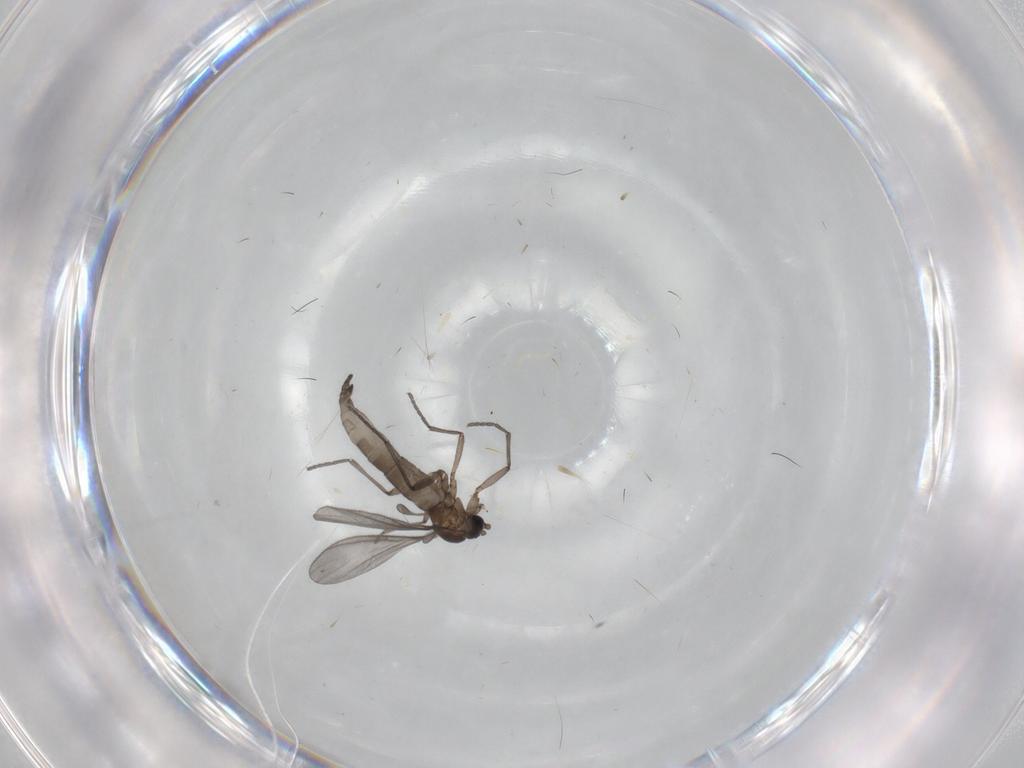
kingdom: Animalia
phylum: Arthropoda
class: Insecta
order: Diptera
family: Sciaridae
